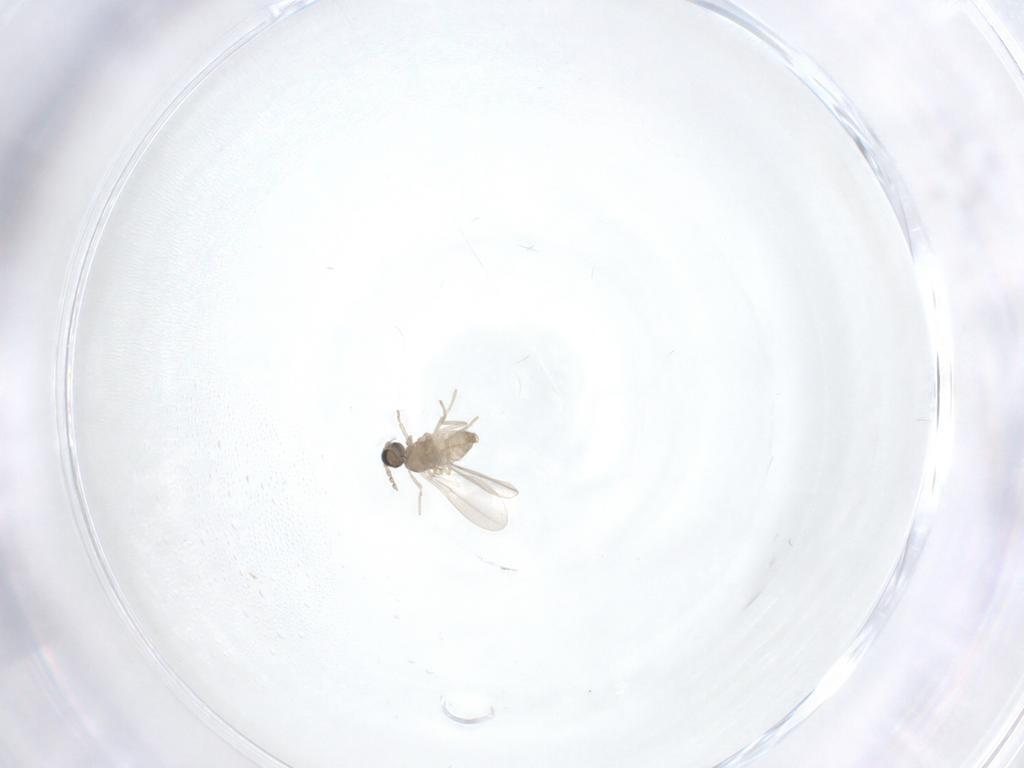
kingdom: Animalia
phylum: Arthropoda
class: Insecta
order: Diptera
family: Cecidomyiidae
